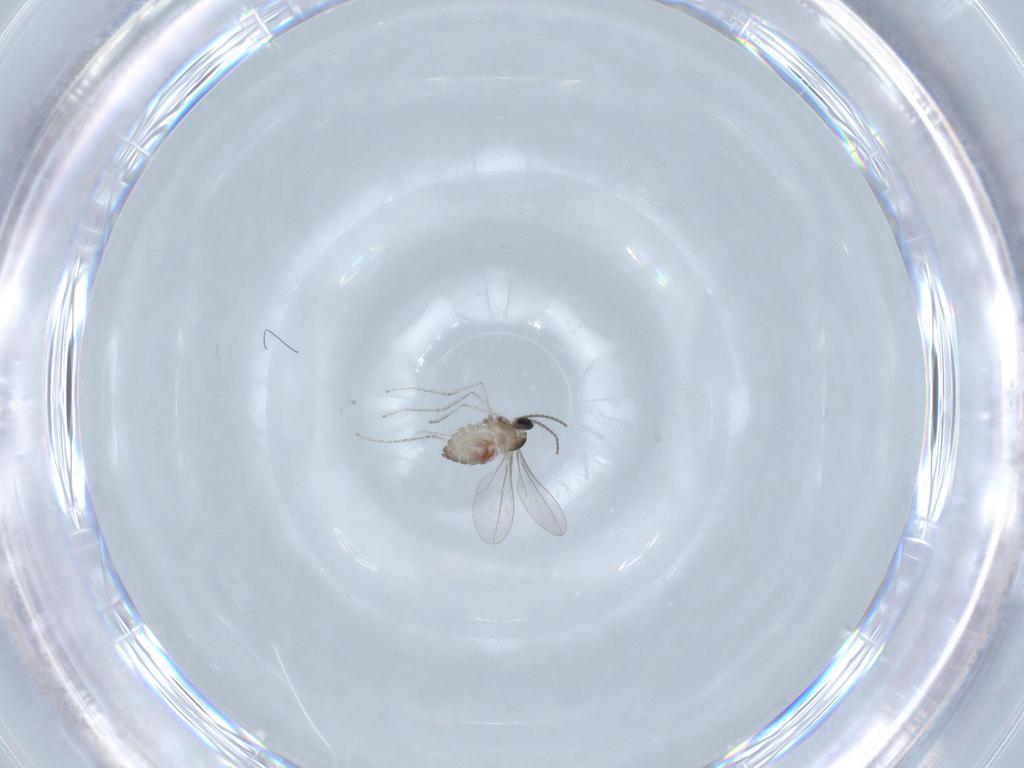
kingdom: Animalia
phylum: Arthropoda
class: Insecta
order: Diptera
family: Cecidomyiidae
